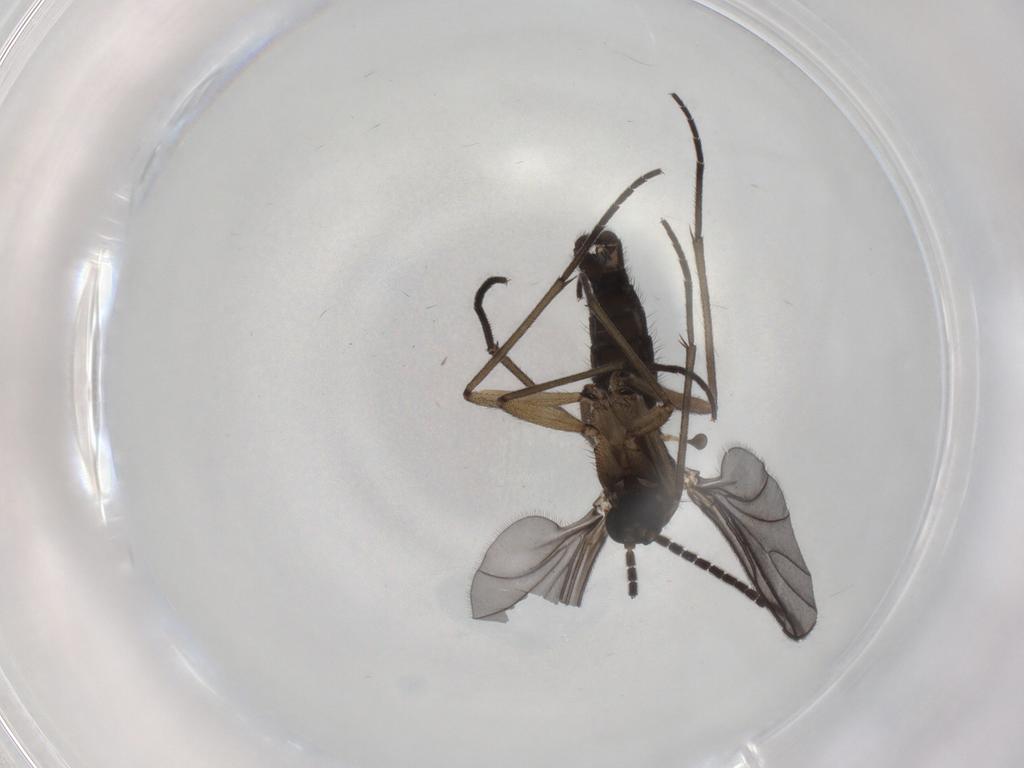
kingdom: Animalia
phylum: Arthropoda
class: Insecta
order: Diptera
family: Sciaridae
